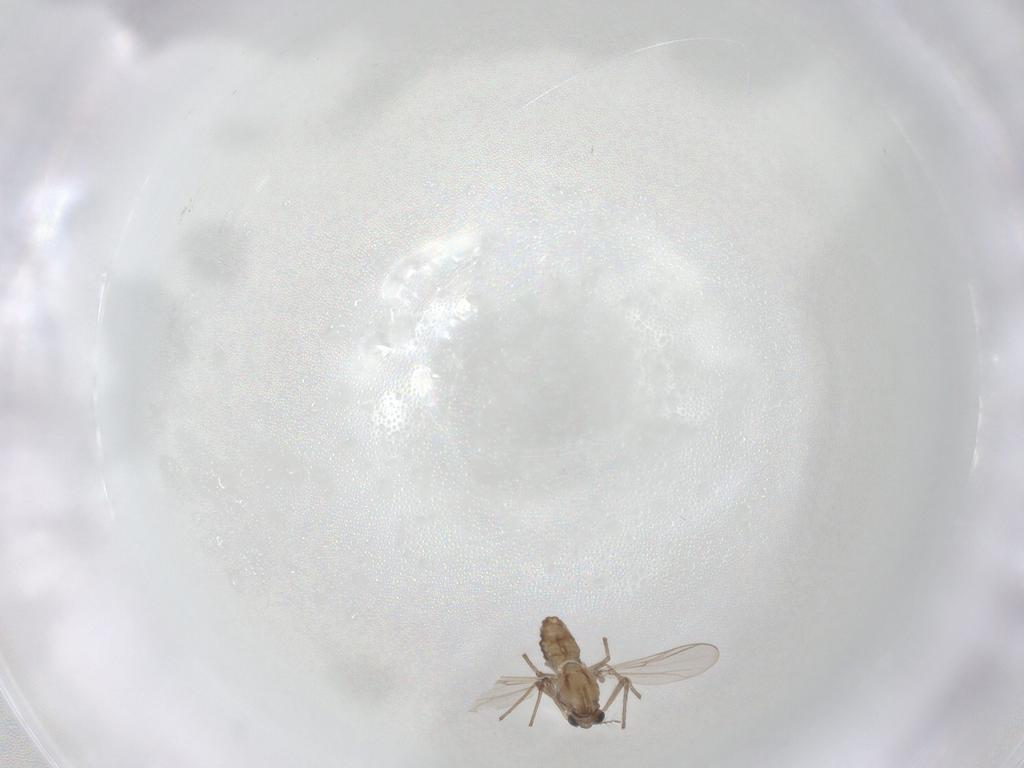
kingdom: Animalia
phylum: Arthropoda
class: Insecta
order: Diptera
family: Chironomidae
